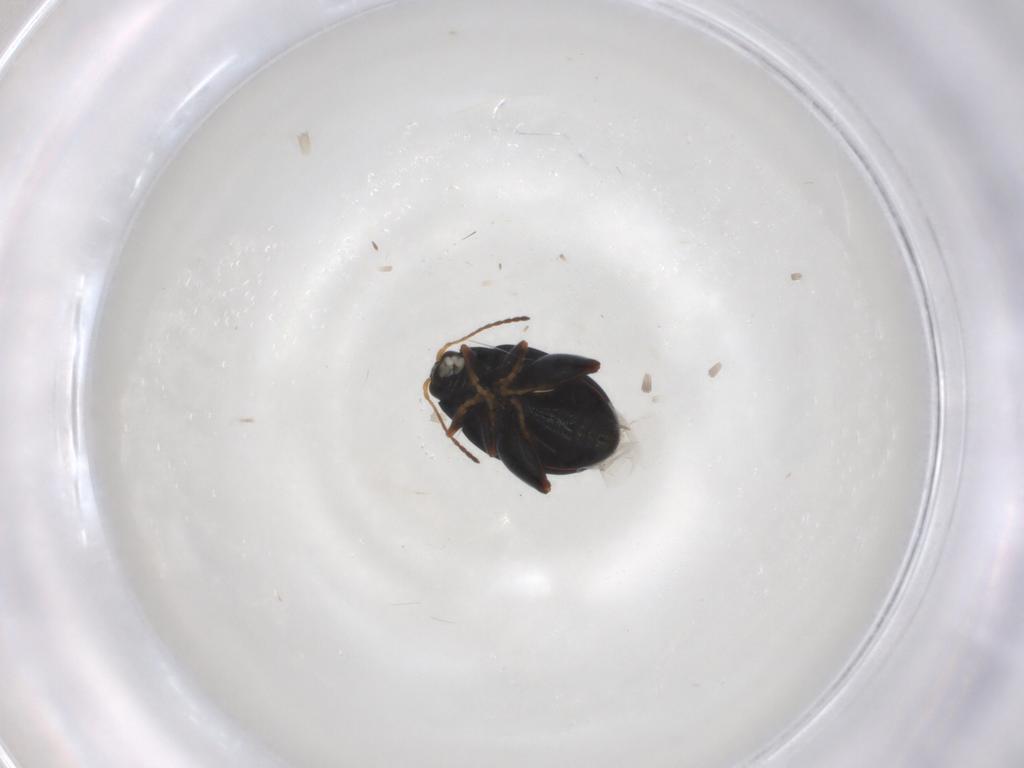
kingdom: Animalia
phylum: Arthropoda
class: Insecta
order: Coleoptera
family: Chrysomelidae
